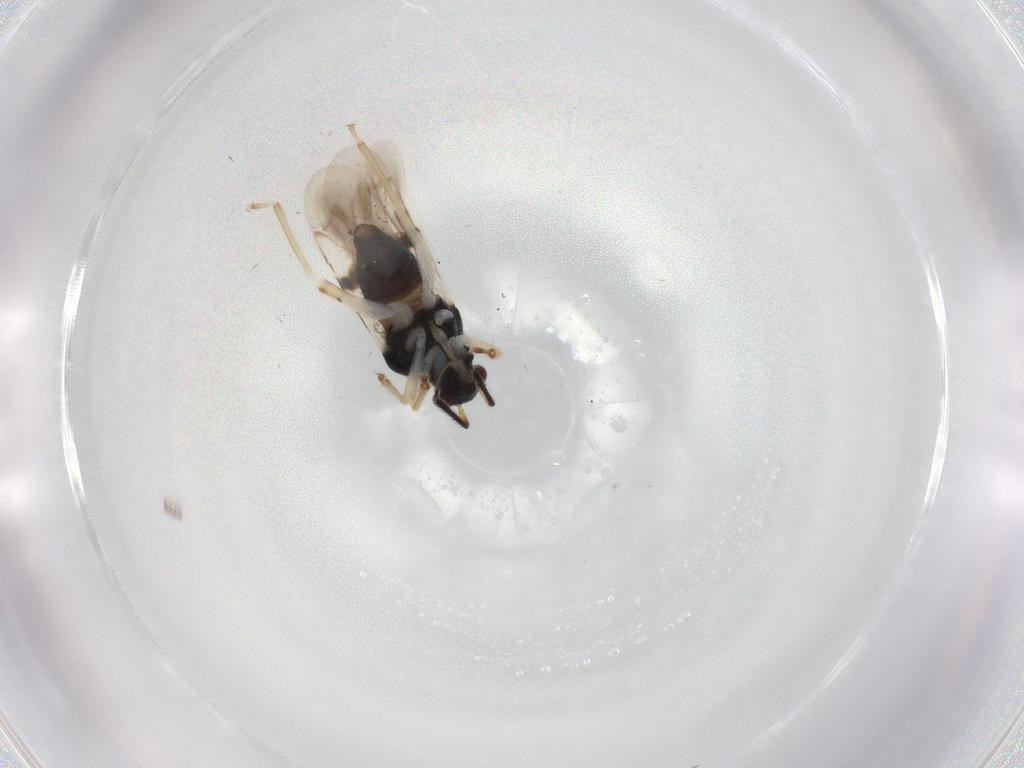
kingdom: Animalia
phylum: Arthropoda
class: Insecta
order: Hemiptera
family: Miridae
